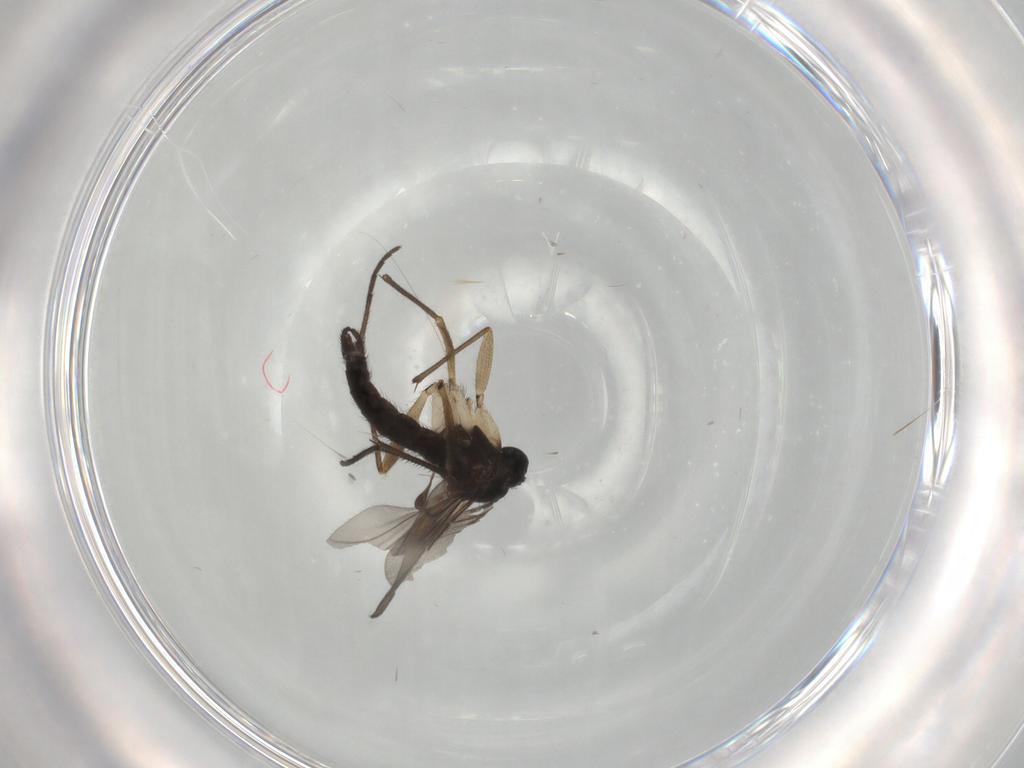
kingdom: Animalia
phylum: Arthropoda
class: Insecta
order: Diptera
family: Sciaridae
